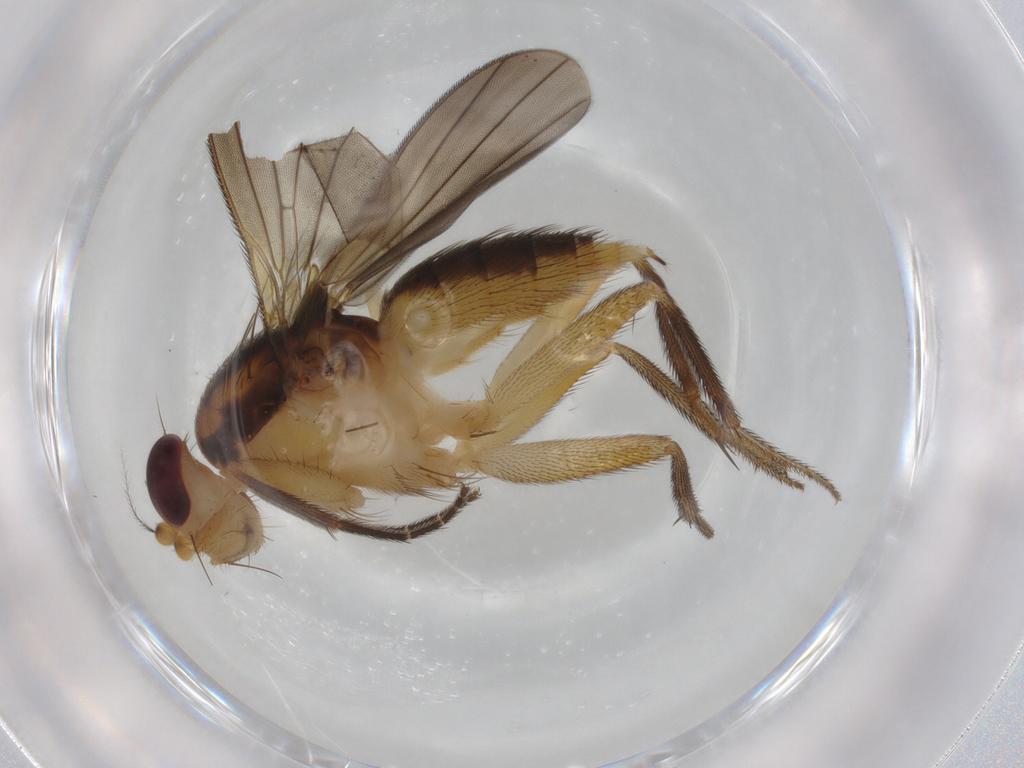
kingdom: Animalia
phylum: Arthropoda
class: Insecta
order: Diptera
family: Clusiidae
